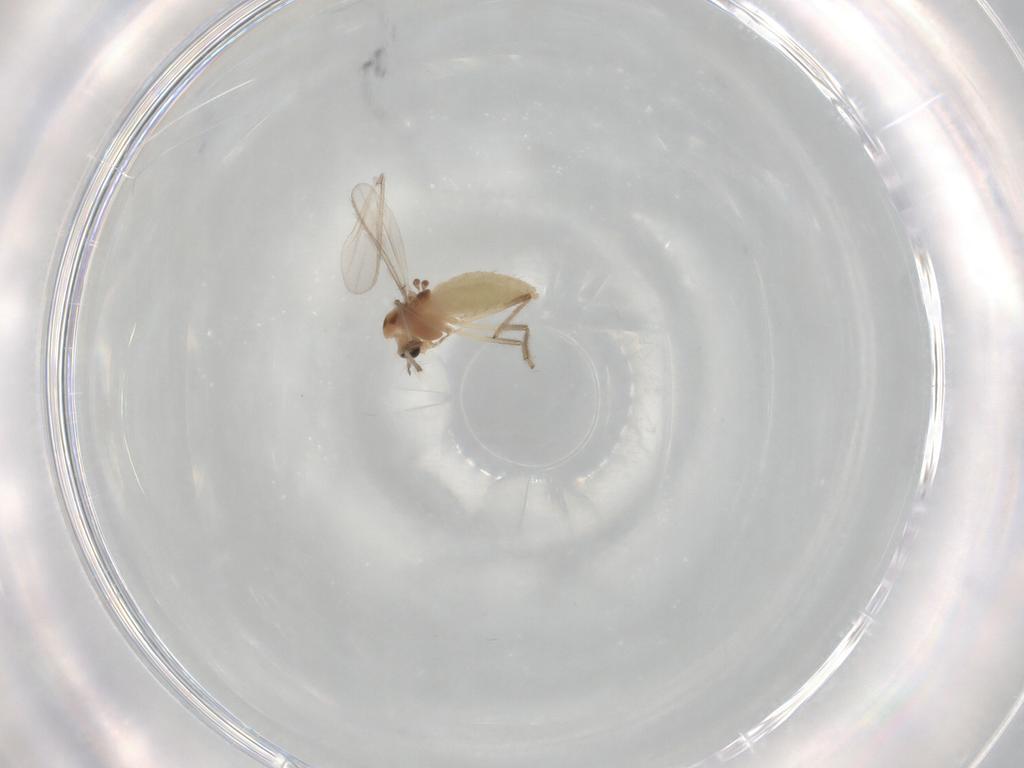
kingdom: Animalia
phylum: Arthropoda
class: Insecta
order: Diptera
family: Chironomidae
